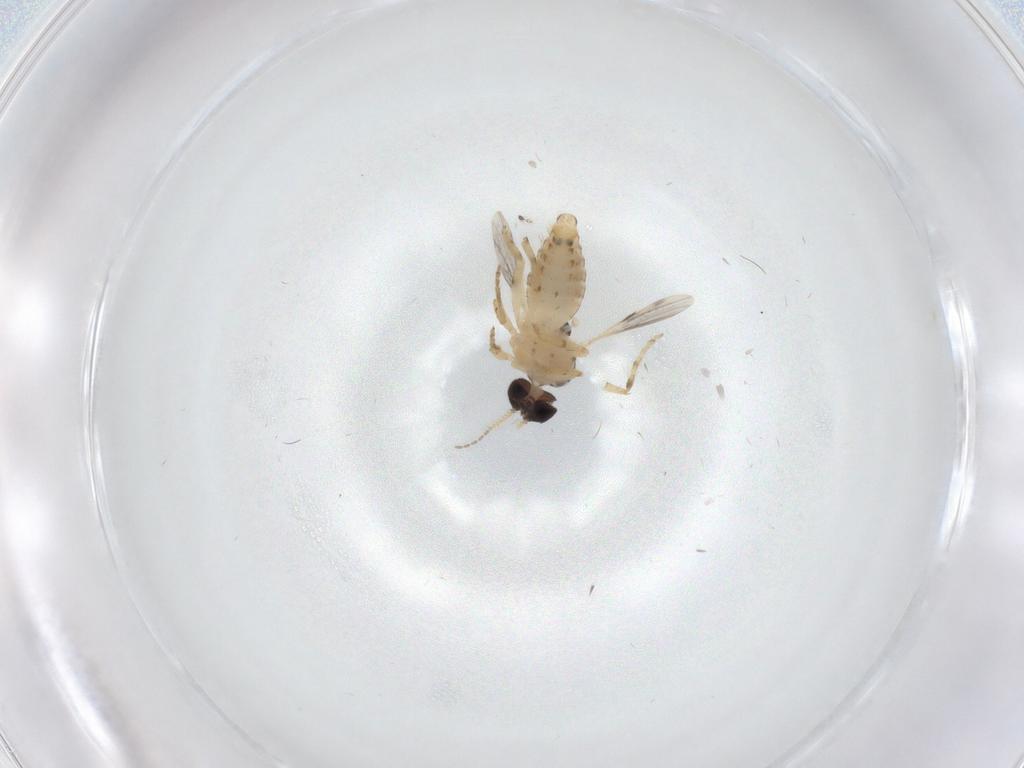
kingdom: Animalia
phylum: Arthropoda
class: Insecta
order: Diptera
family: Ceratopogonidae
